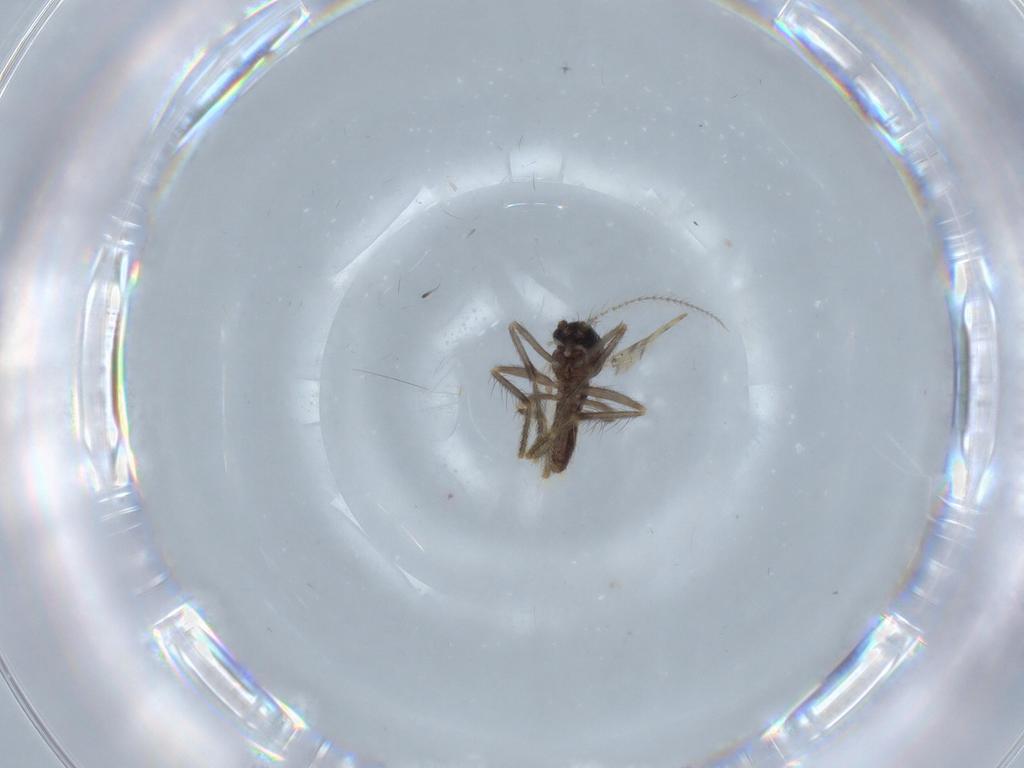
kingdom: Animalia
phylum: Arthropoda
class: Insecta
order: Diptera
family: Corethrellidae
